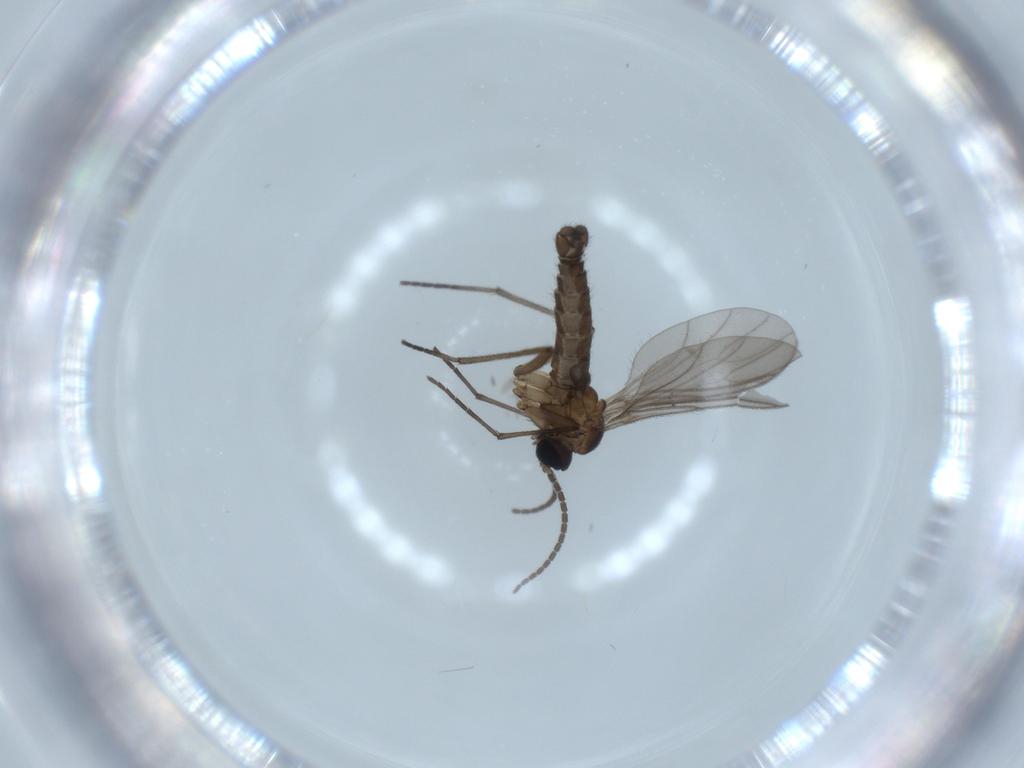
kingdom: Animalia
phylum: Arthropoda
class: Insecta
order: Diptera
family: Sciaridae
